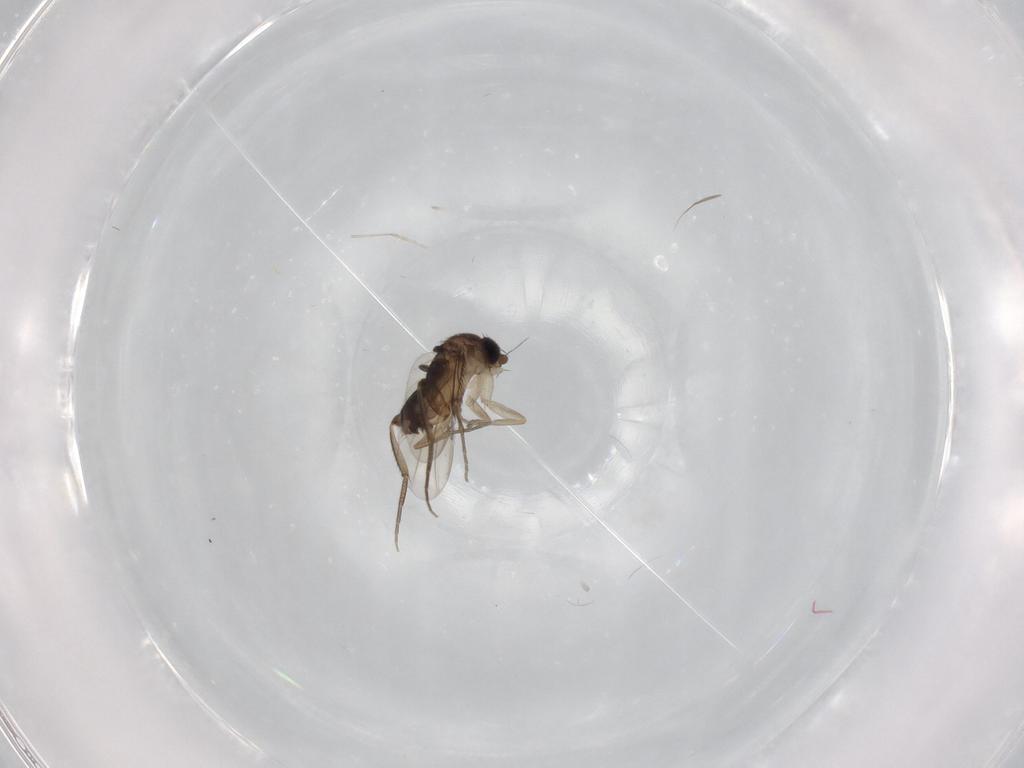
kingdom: Animalia
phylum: Arthropoda
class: Insecta
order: Diptera
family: Phoridae
